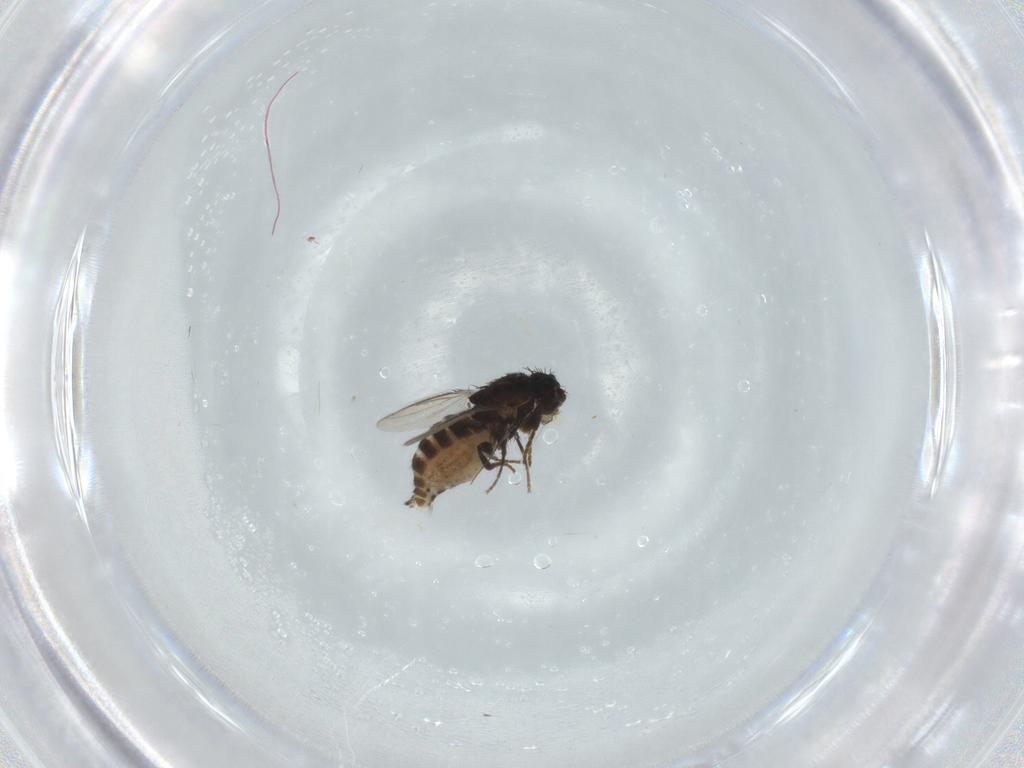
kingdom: Animalia
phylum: Arthropoda
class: Insecta
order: Diptera
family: Sphaeroceridae
